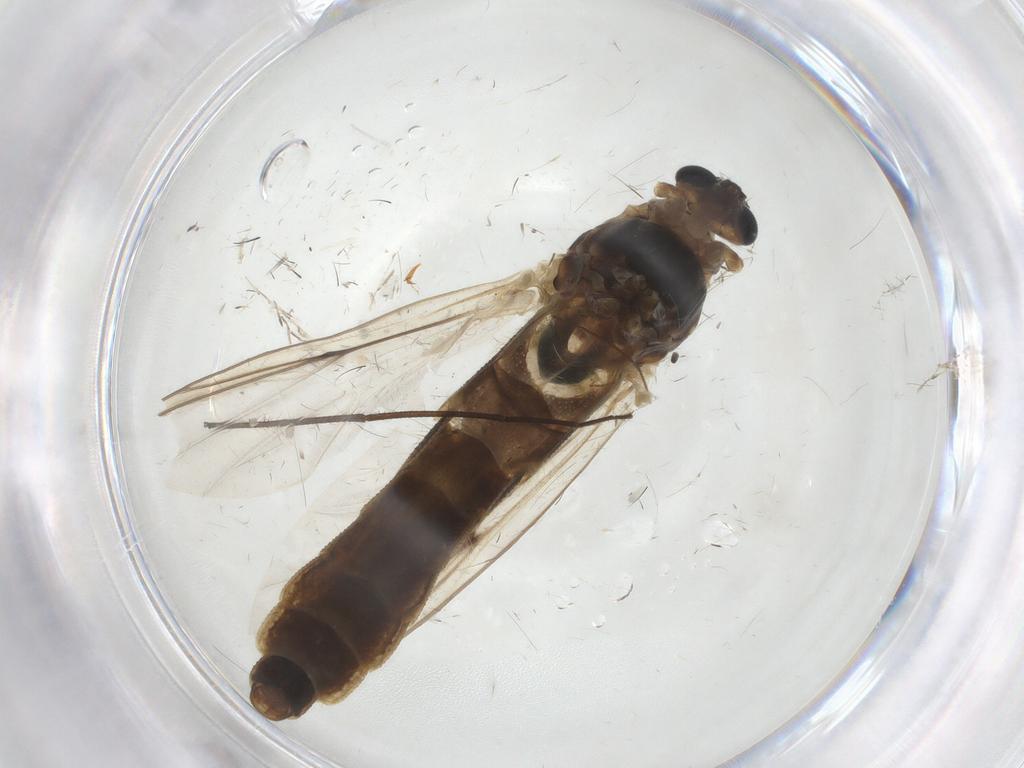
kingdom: Animalia
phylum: Arthropoda
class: Insecta
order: Diptera
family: Chironomidae
